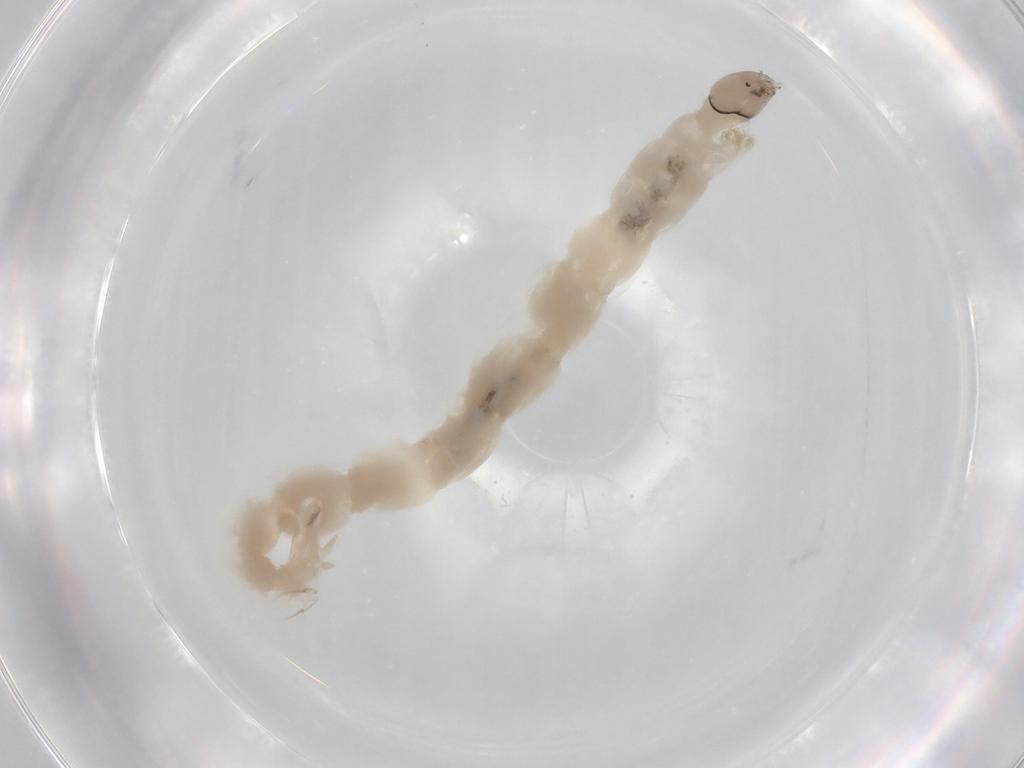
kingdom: Animalia
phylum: Arthropoda
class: Insecta
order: Diptera
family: Chironomidae
